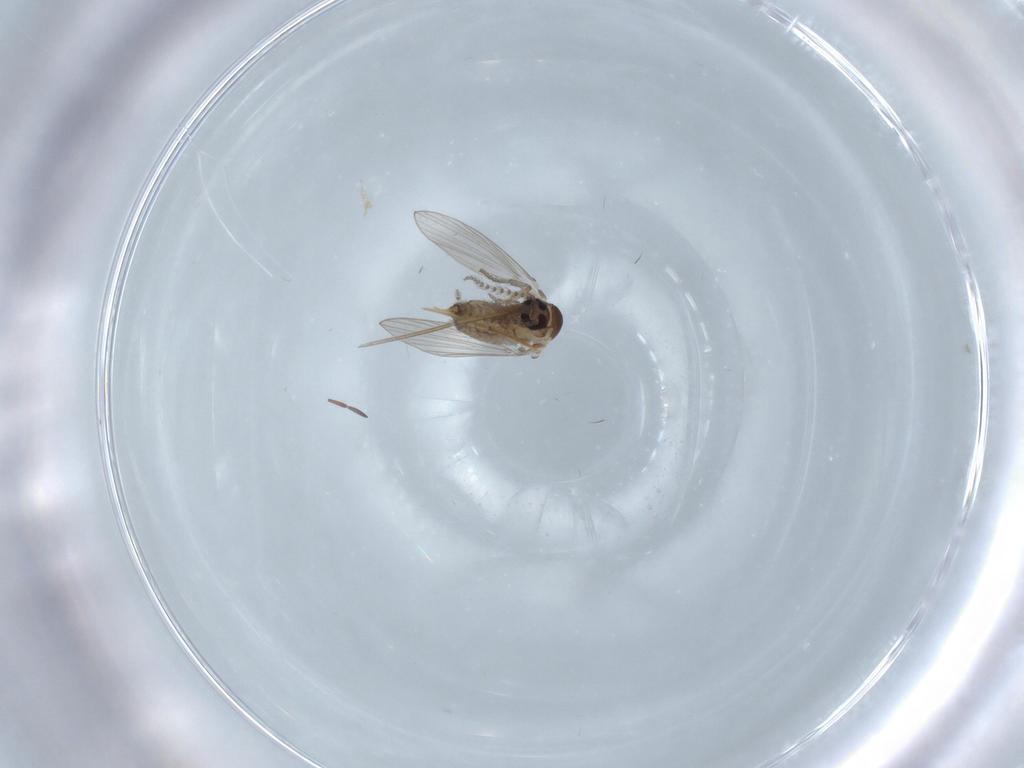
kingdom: Animalia
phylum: Arthropoda
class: Insecta
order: Diptera
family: Psychodidae
